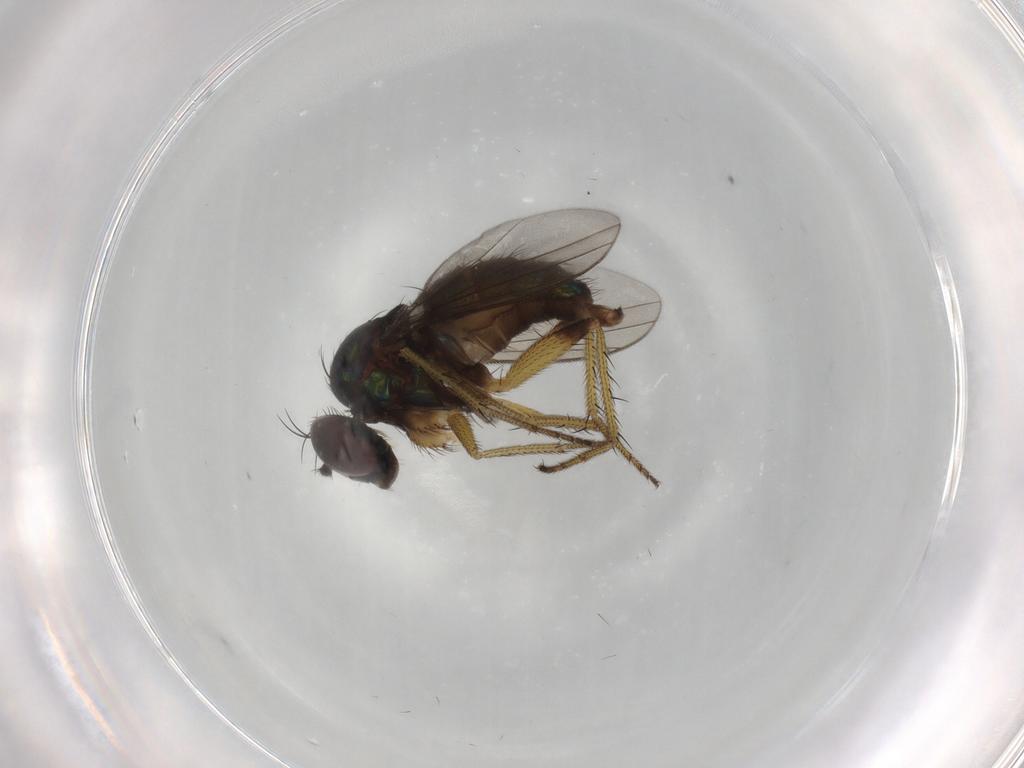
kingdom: Animalia
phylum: Arthropoda
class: Insecta
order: Diptera
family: Dolichopodidae
